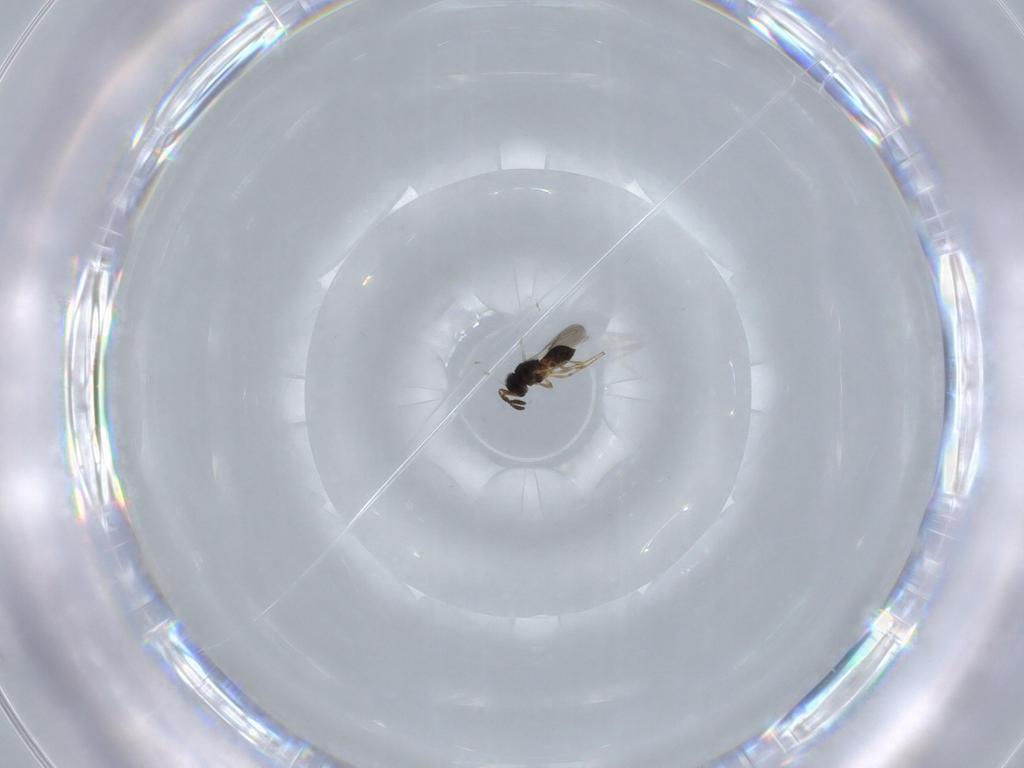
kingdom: Animalia
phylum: Arthropoda
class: Insecta
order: Hymenoptera
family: Scelionidae
